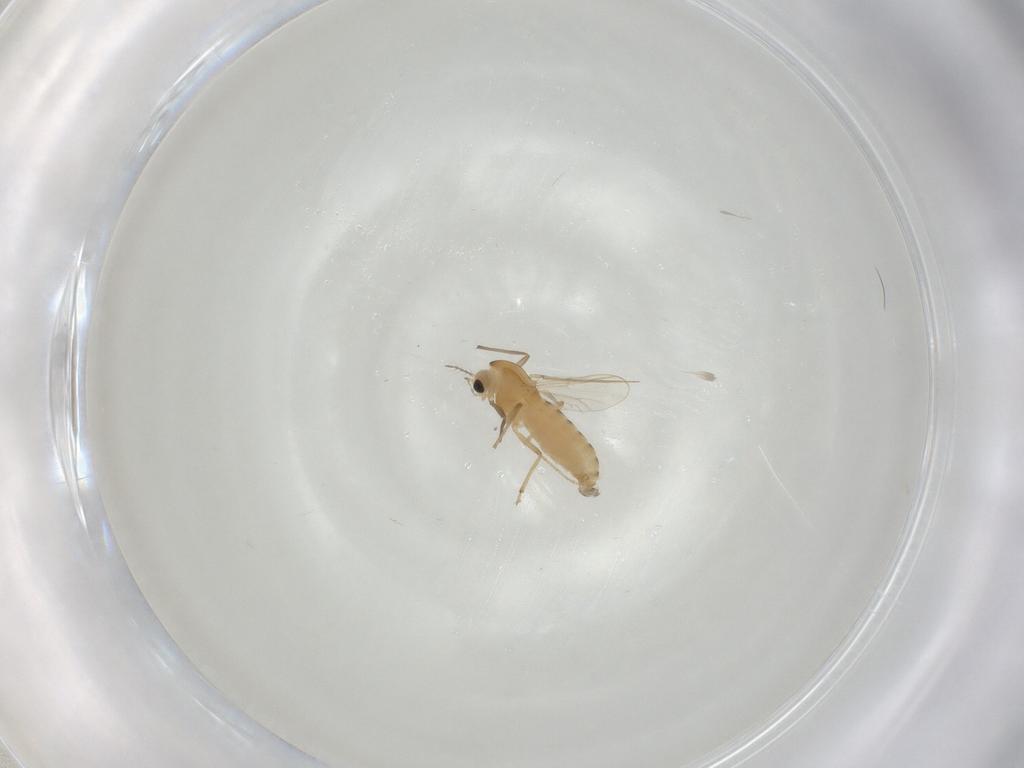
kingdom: Animalia
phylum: Arthropoda
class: Insecta
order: Diptera
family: Chironomidae
